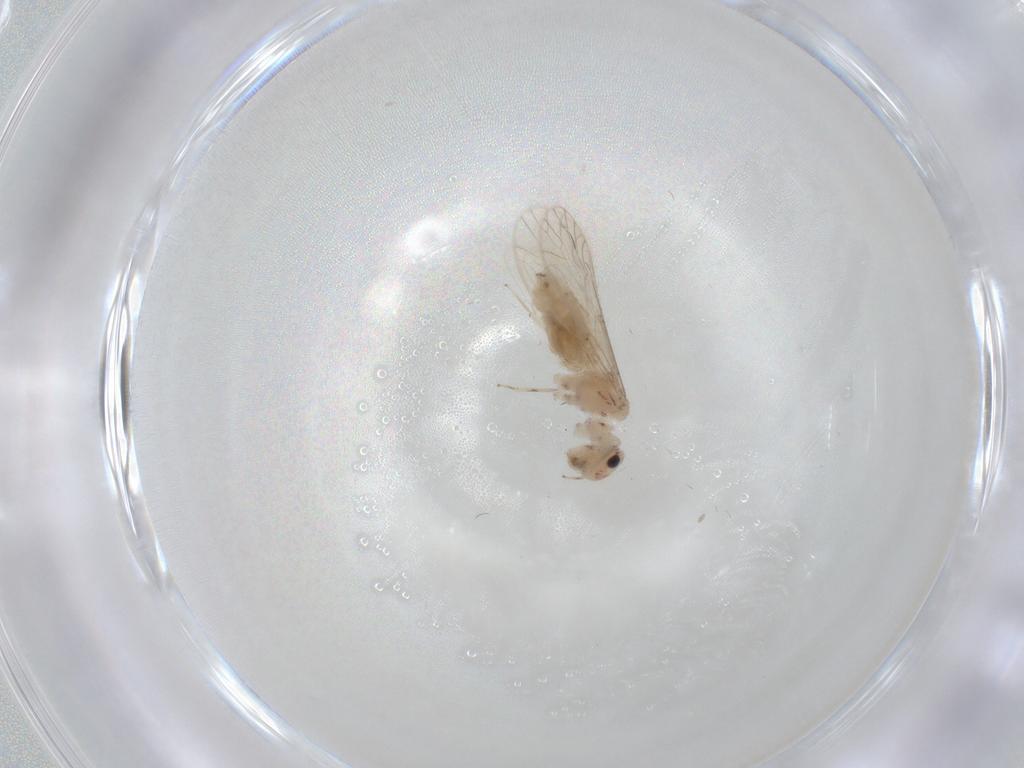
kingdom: Animalia
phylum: Arthropoda
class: Insecta
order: Psocodea
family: Caeciliusidae
